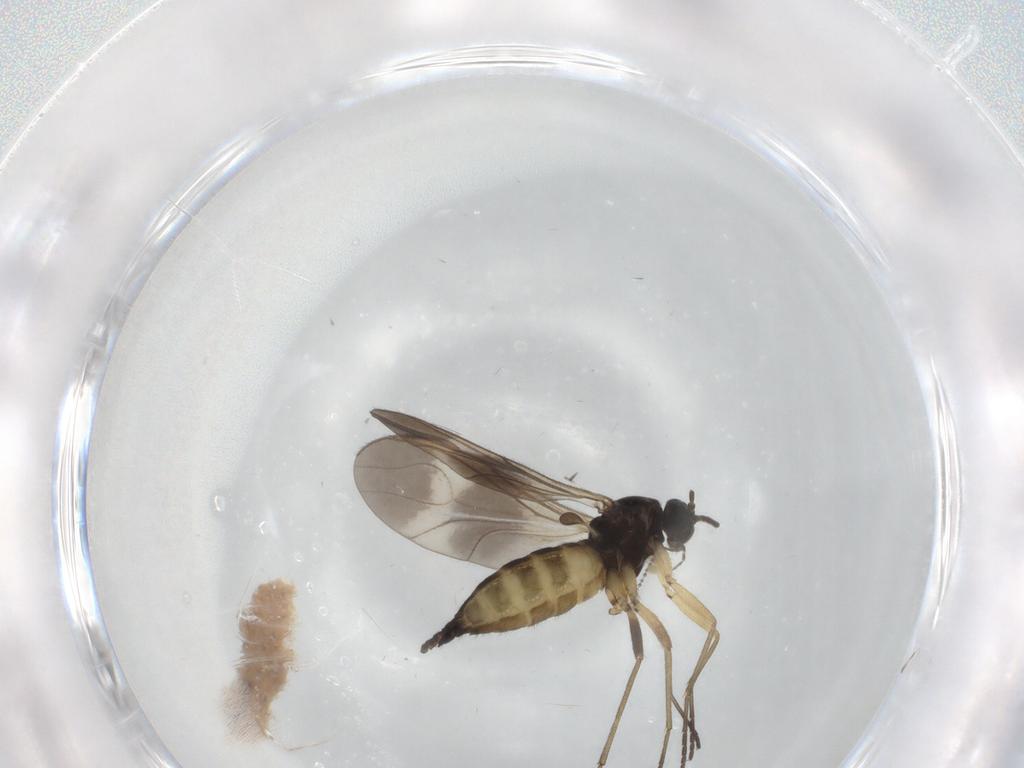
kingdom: Animalia
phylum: Arthropoda
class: Insecta
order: Diptera
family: Sciaridae
